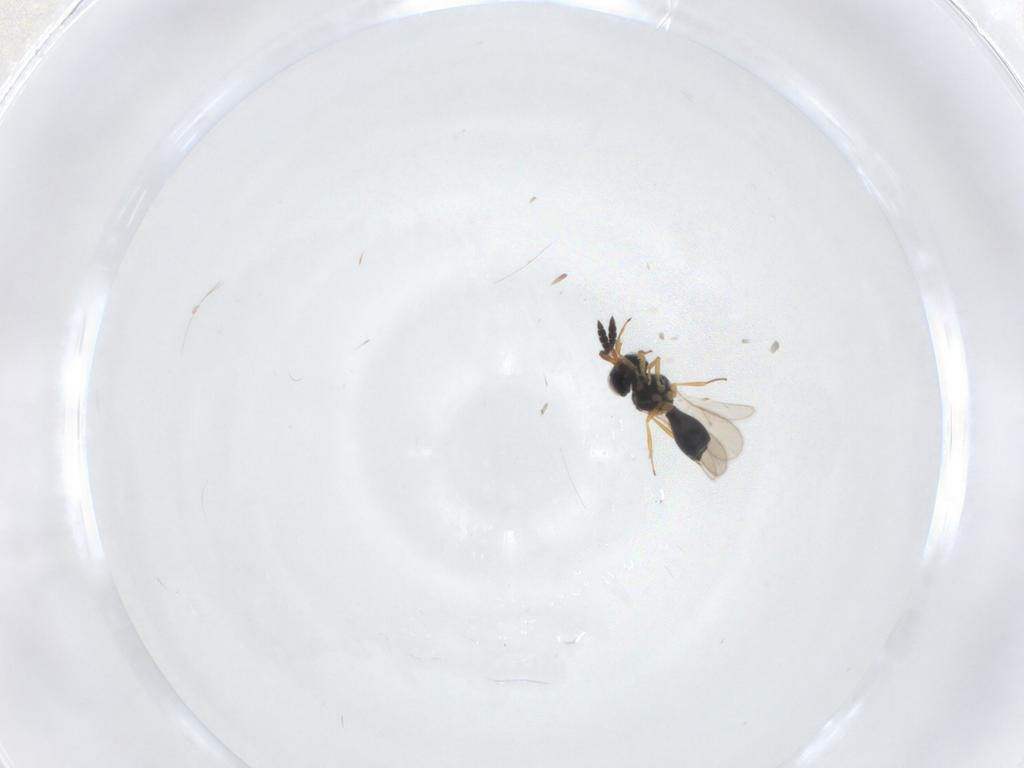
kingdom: Animalia
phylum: Arthropoda
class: Insecta
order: Hymenoptera
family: Scelionidae
